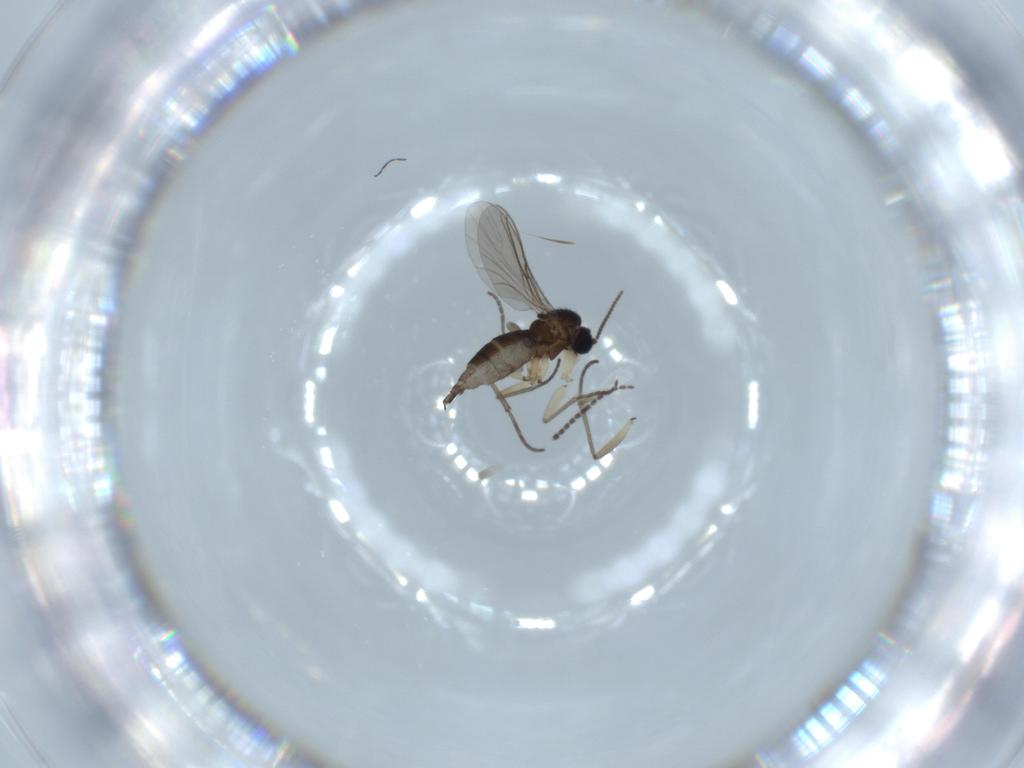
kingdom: Animalia
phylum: Arthropoda
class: Insecta
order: Diptera
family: Sciaridae
